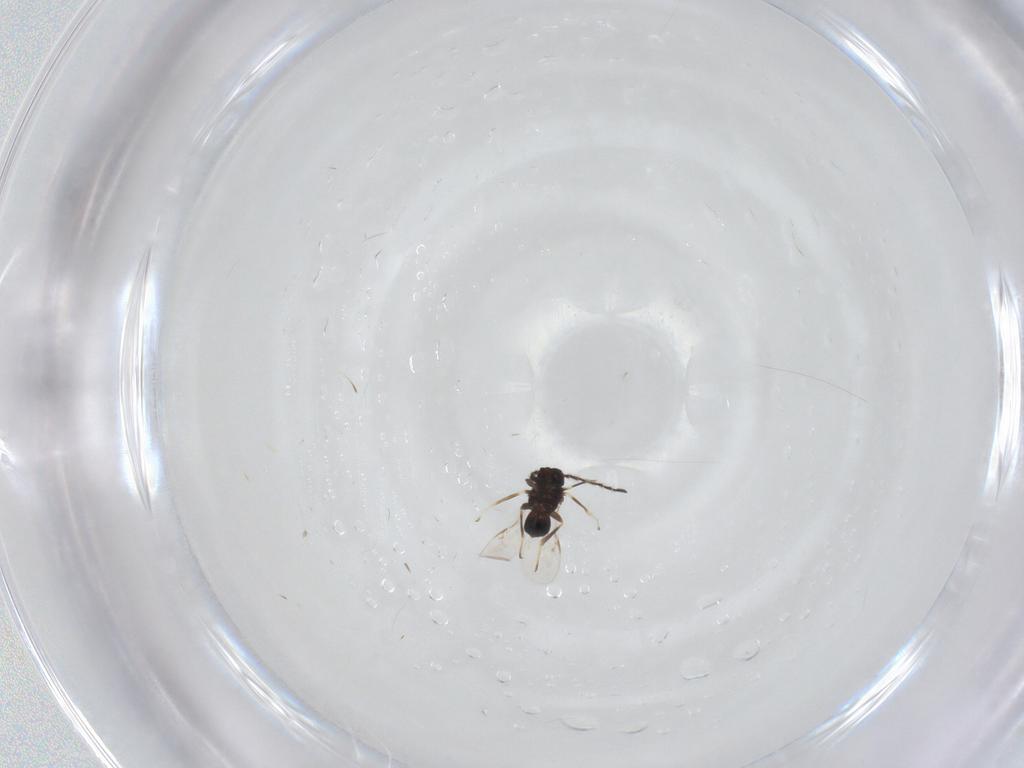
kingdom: Animalia
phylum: Arthropoda
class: Insecta
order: Hymenoptera
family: Encyrtidae
